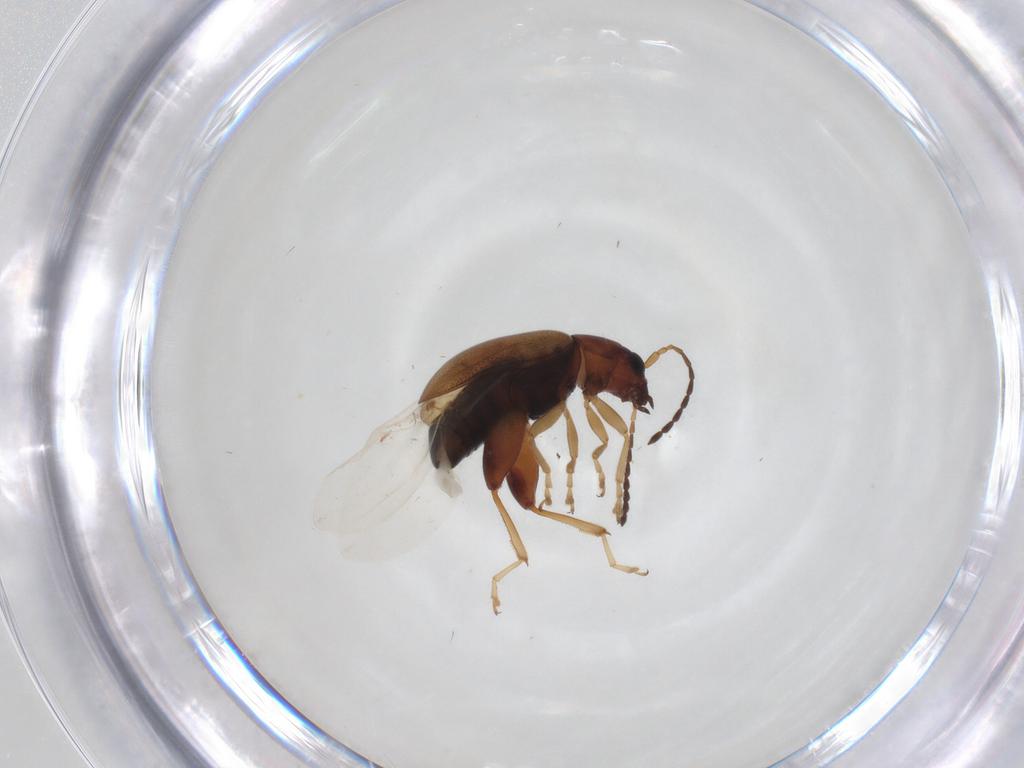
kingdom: Animalia
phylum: Arthropoda
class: Insecta
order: Coleoptera
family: Chrysomelidae
